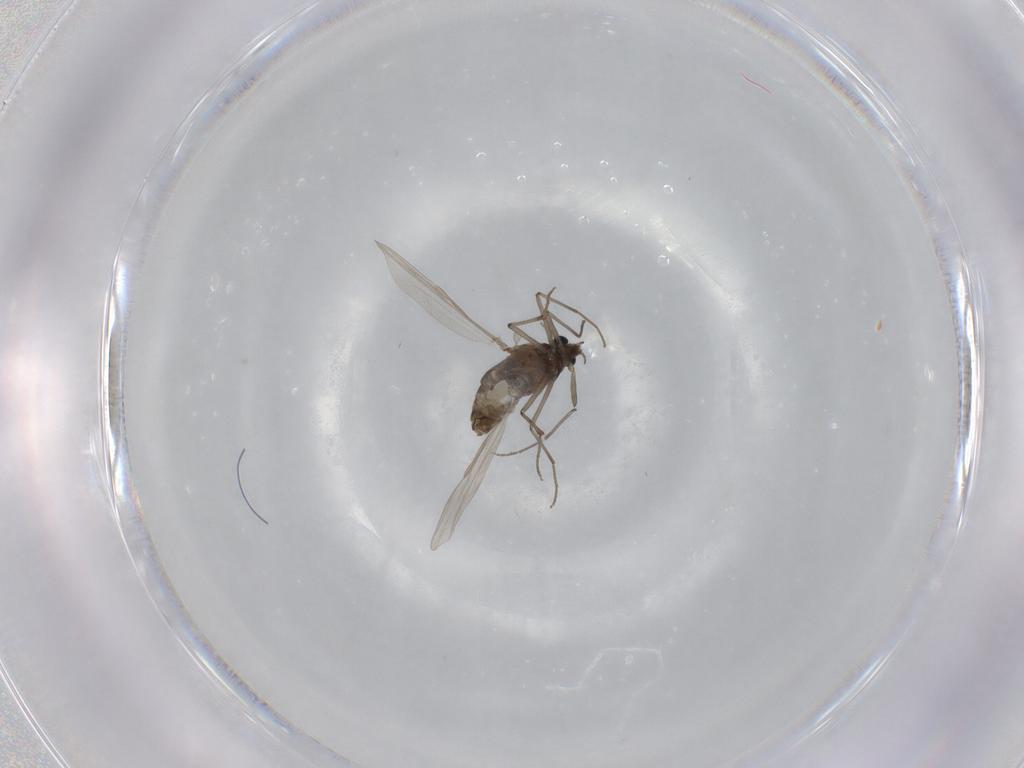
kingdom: Animalia
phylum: Arthropoda
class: Insecta
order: Diptera
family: Chironomidae
